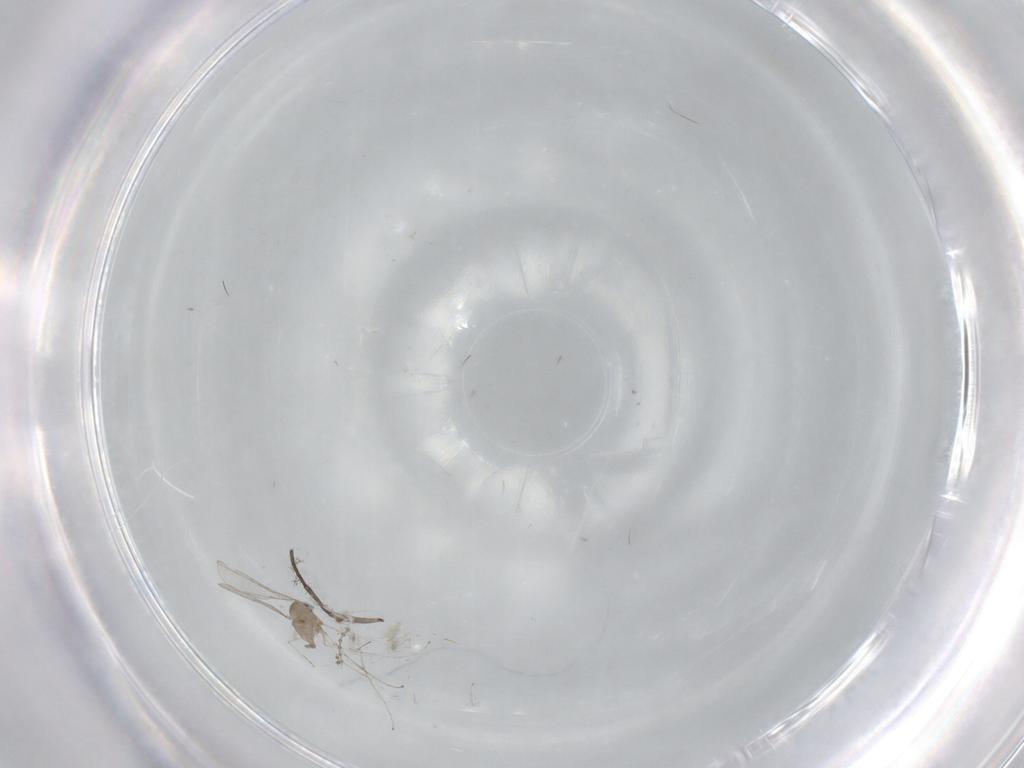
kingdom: Animalia
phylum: Arthropoda
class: Insecta
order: Diptera
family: Cecidomyiidae
